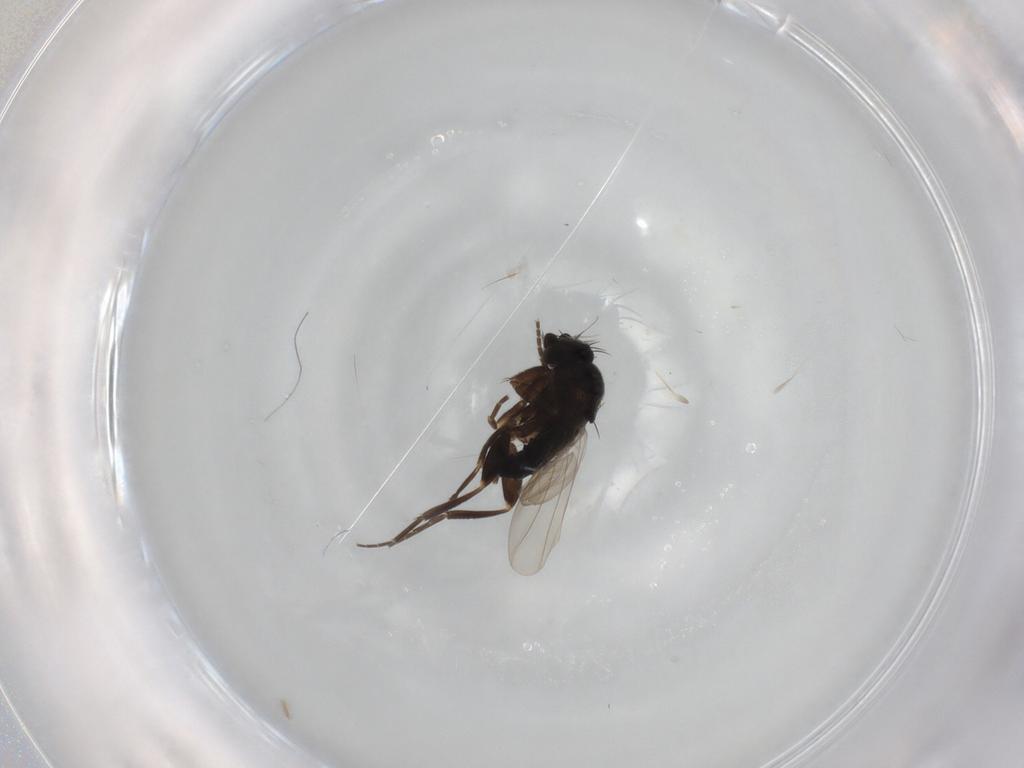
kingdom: Animalia
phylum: Arthropoda
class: Insecta
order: Diptera
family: Phoridae
